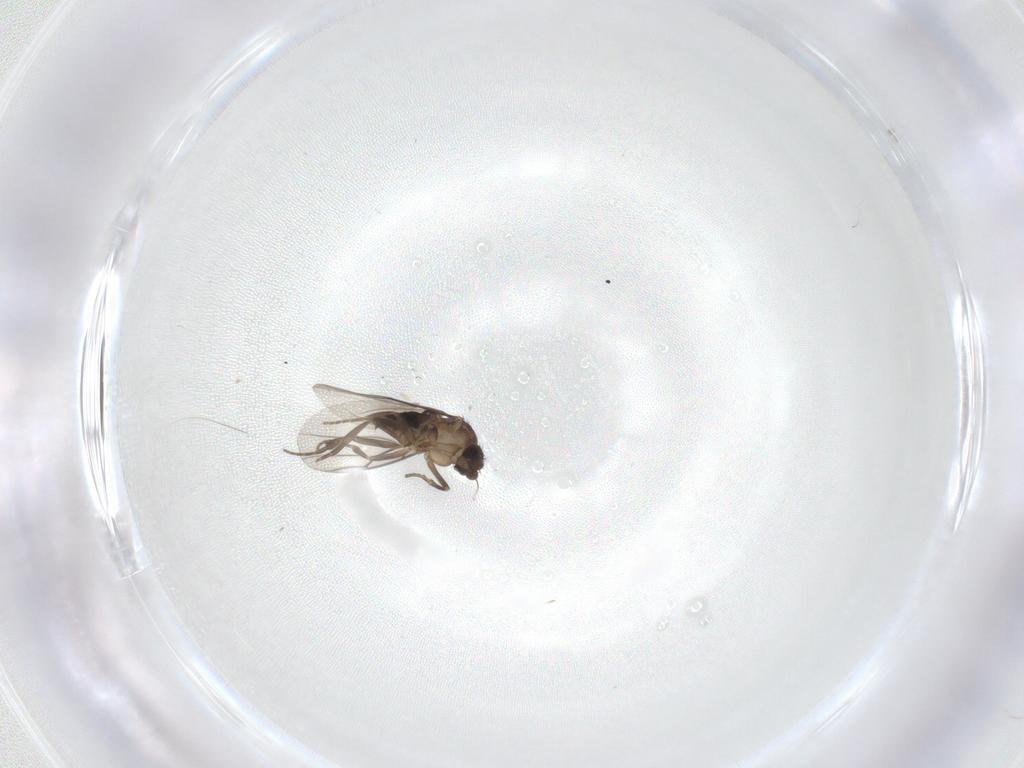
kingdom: Animalia
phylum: Arthropoda
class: Insecta
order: Diptera
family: Phoridae
